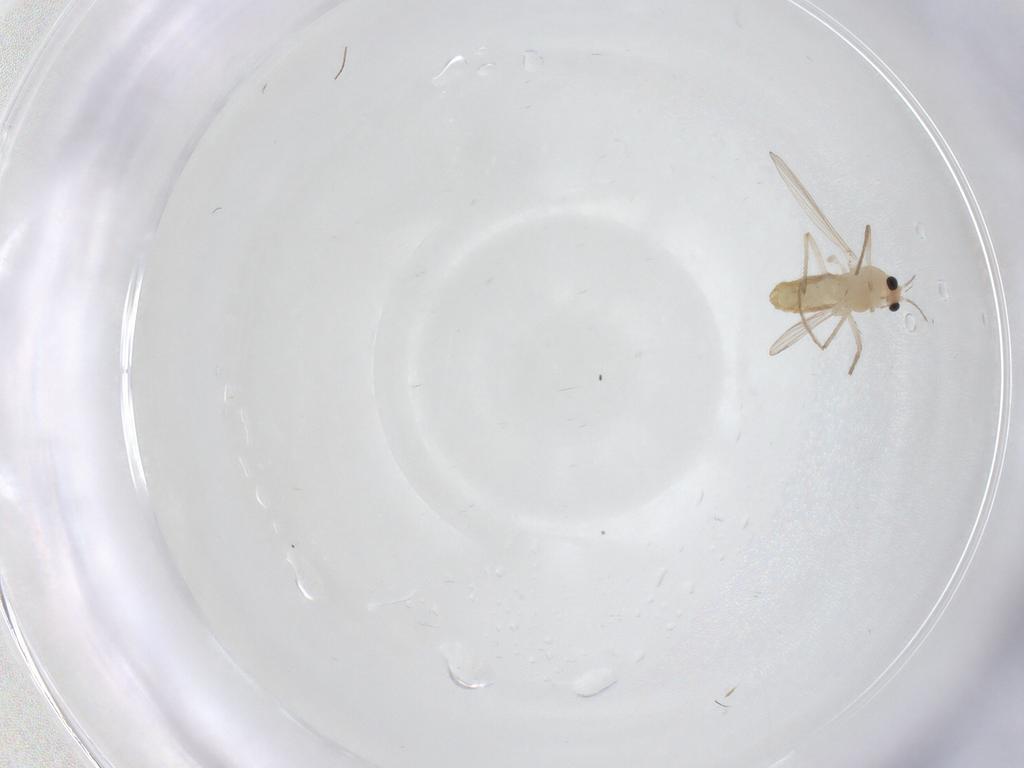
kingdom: Animalia
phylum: Arthropoda
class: Insecta
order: Diptera
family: Chironomidae
